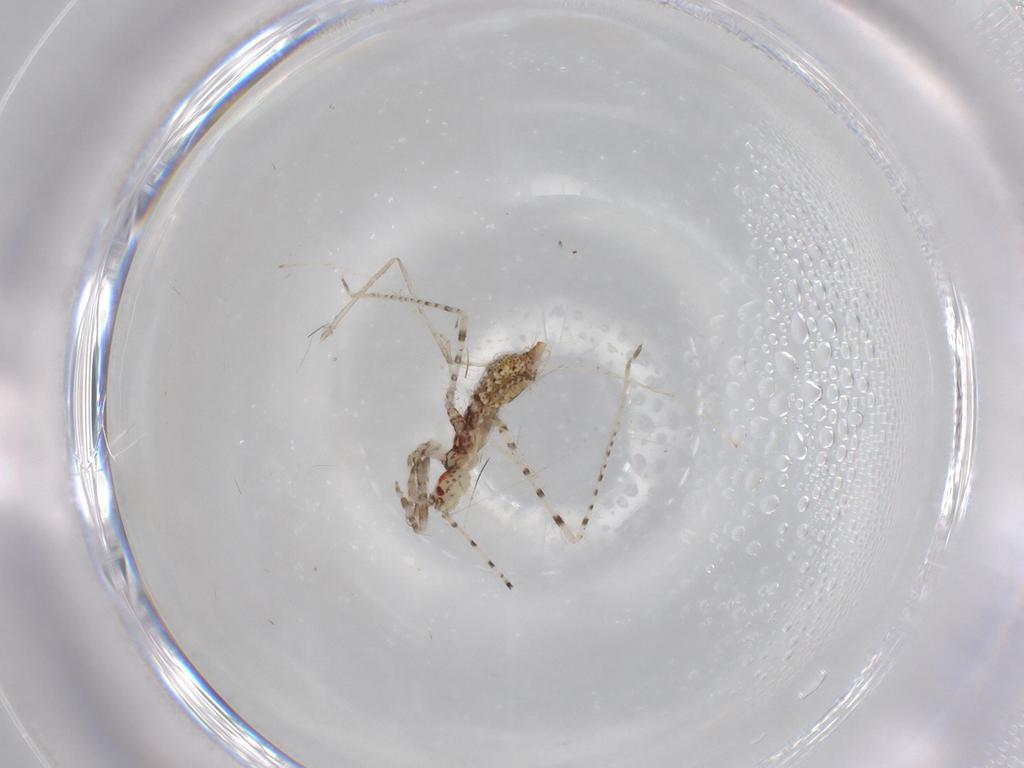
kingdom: Animalia
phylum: Arthropoda
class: Insecta
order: Hemiptera
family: Reduviidae
